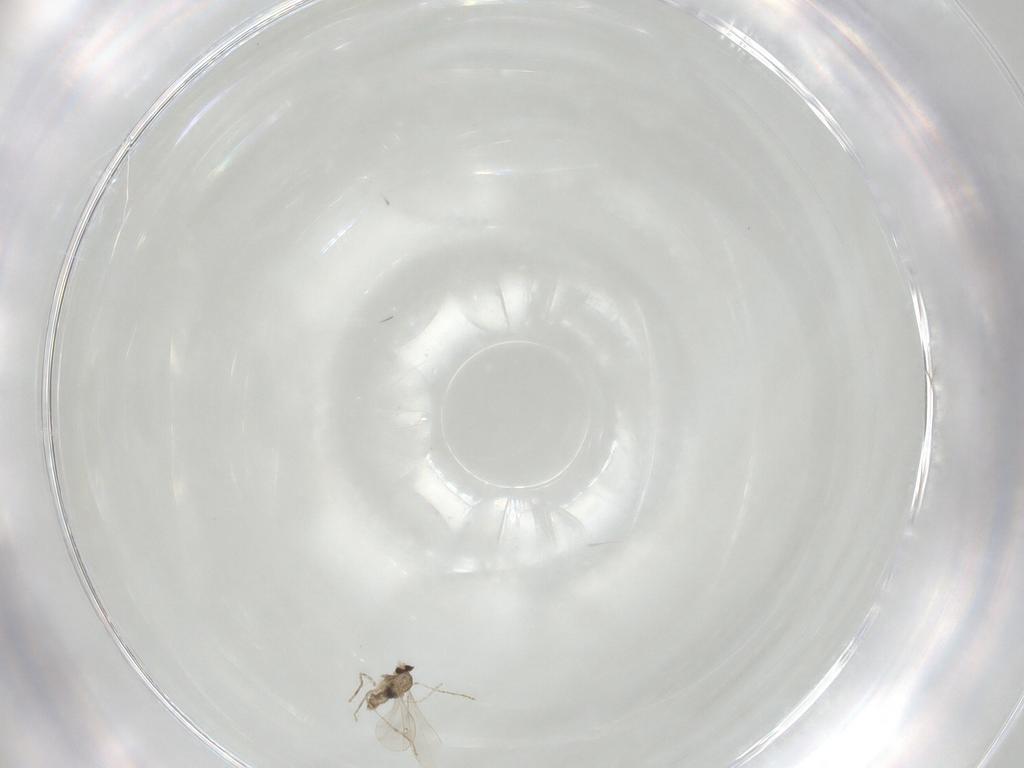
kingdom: Animalia
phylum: Arthropoda
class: Insecta
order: Diptera
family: Cecidomyiidae
